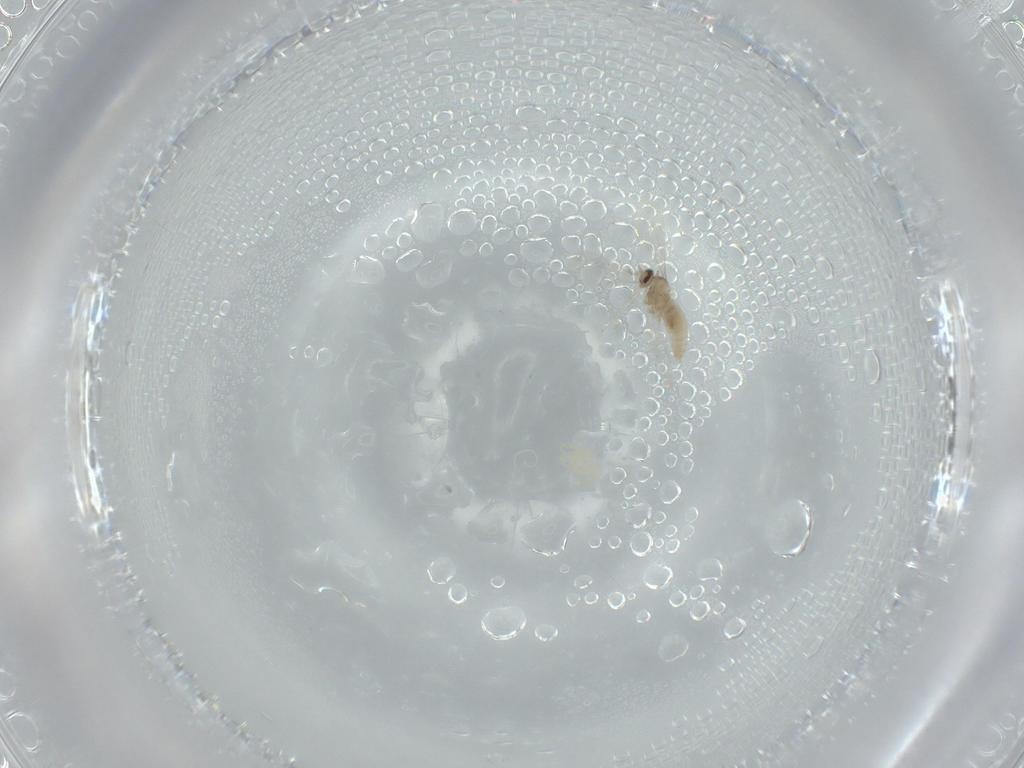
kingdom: Animalia
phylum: Arthropoda
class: Insecta
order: Diptera
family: Cecidomyiidae
